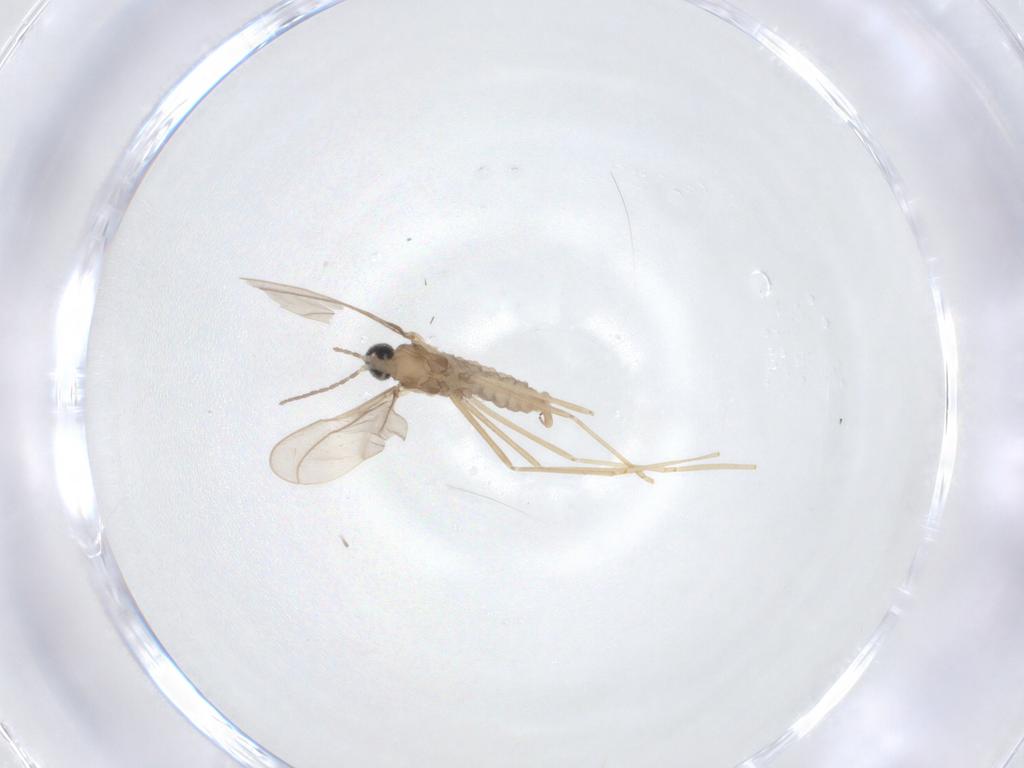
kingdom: Animalia
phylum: Arthropoda
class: Insecta
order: Diptera
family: Cecidomyiidae
